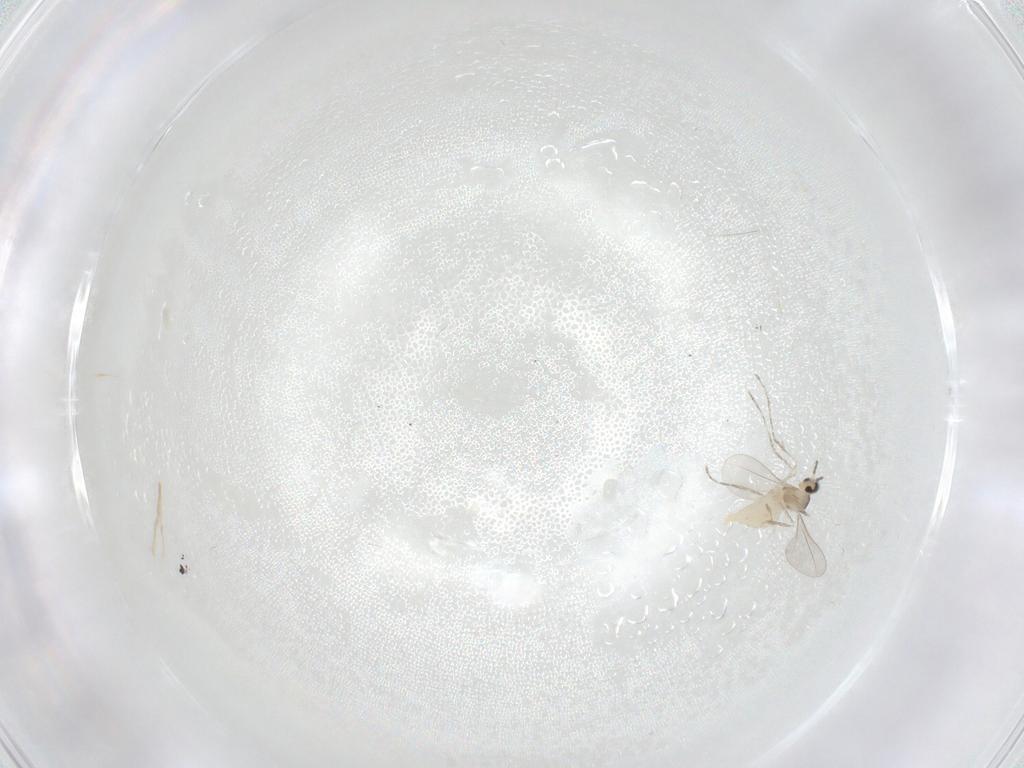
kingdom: Animalia
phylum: Arthropoda
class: Insecta
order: Diptera
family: Cecidomyiidae
